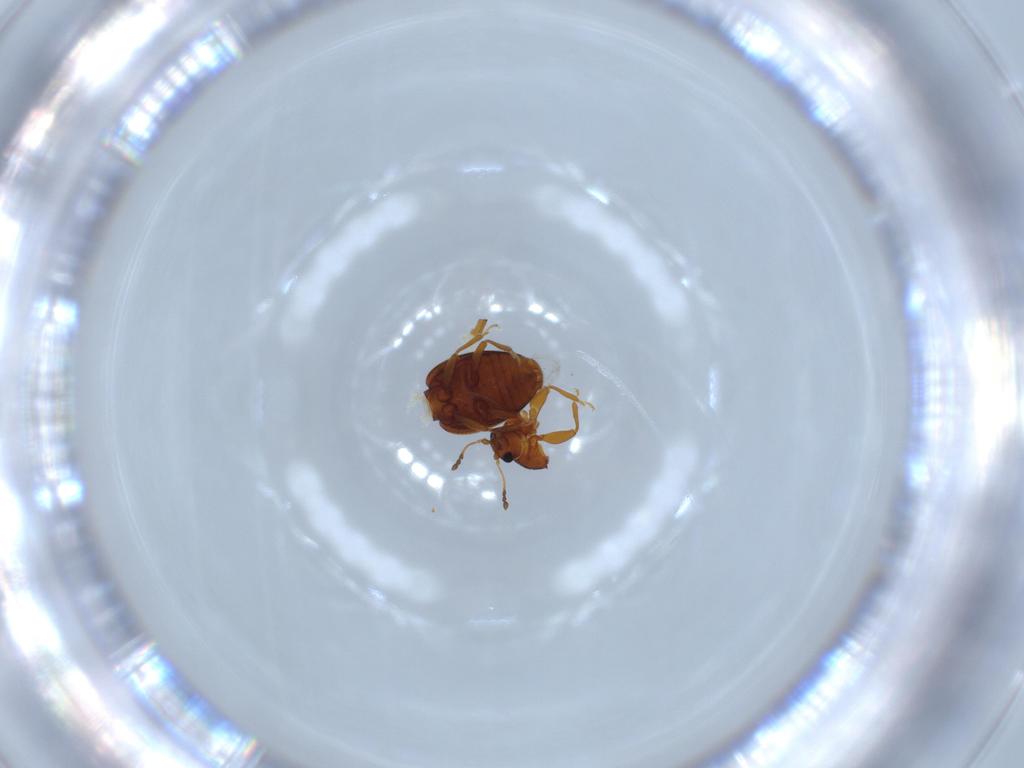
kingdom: Animalia
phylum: Arthropoda
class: Insecta
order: Coleoptera
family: Latridiidae
